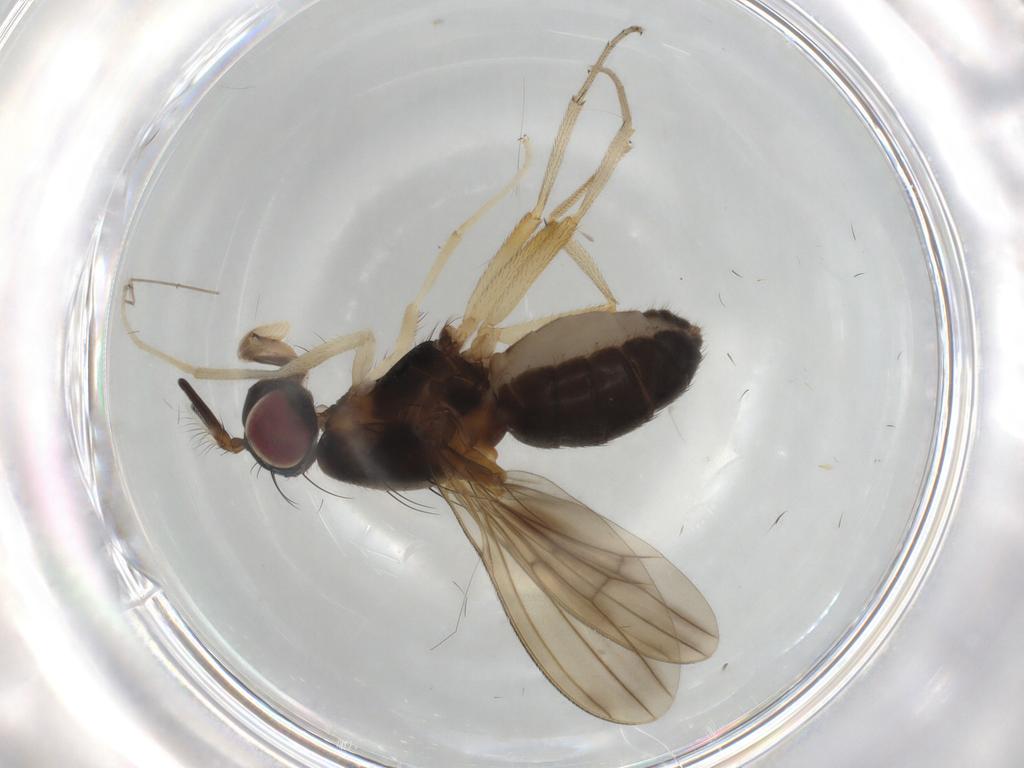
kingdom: Animalia
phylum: Arthropoda
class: Insecta
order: Diptera
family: Lauxaniidae
